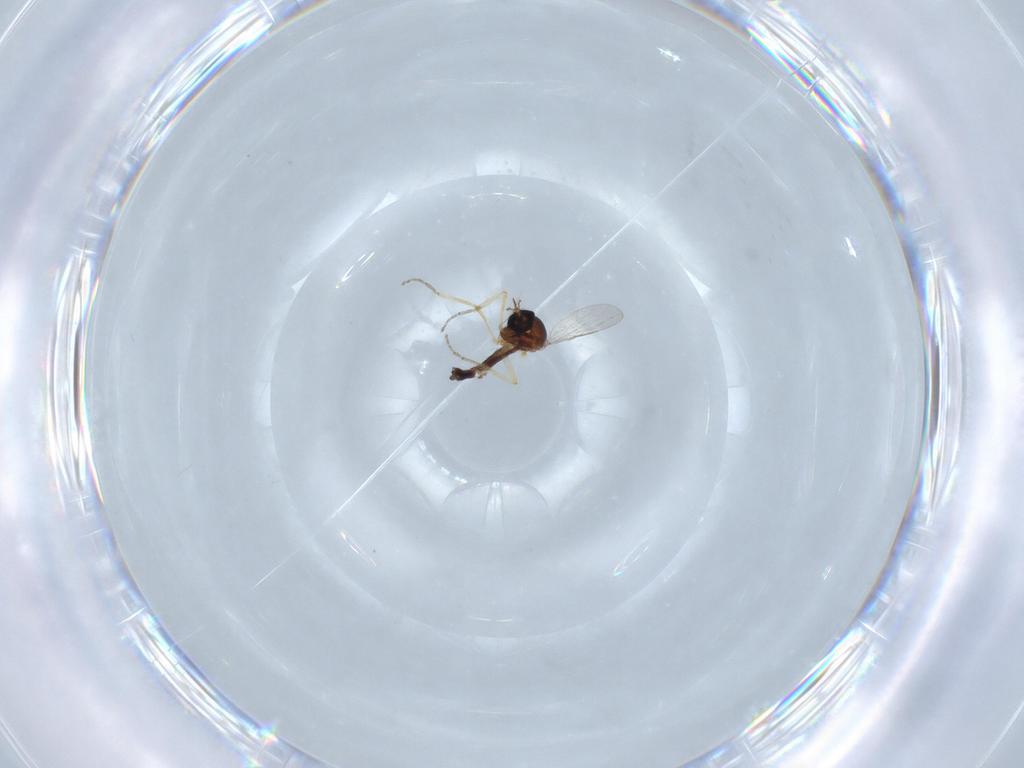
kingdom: Animalia
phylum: Arthropoda
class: Insecta
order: Diptera
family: Ceratopogonidae
